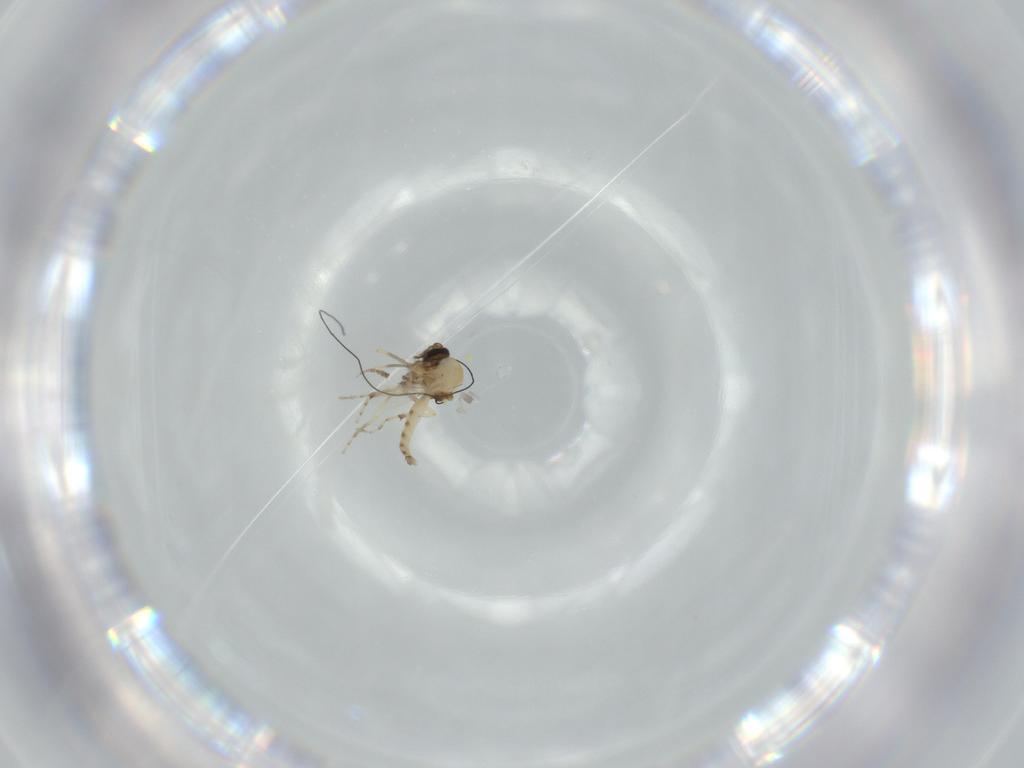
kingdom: Animalia
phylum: Arthropoda
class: Insecta
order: Diptera
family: Ceratopogonidae
